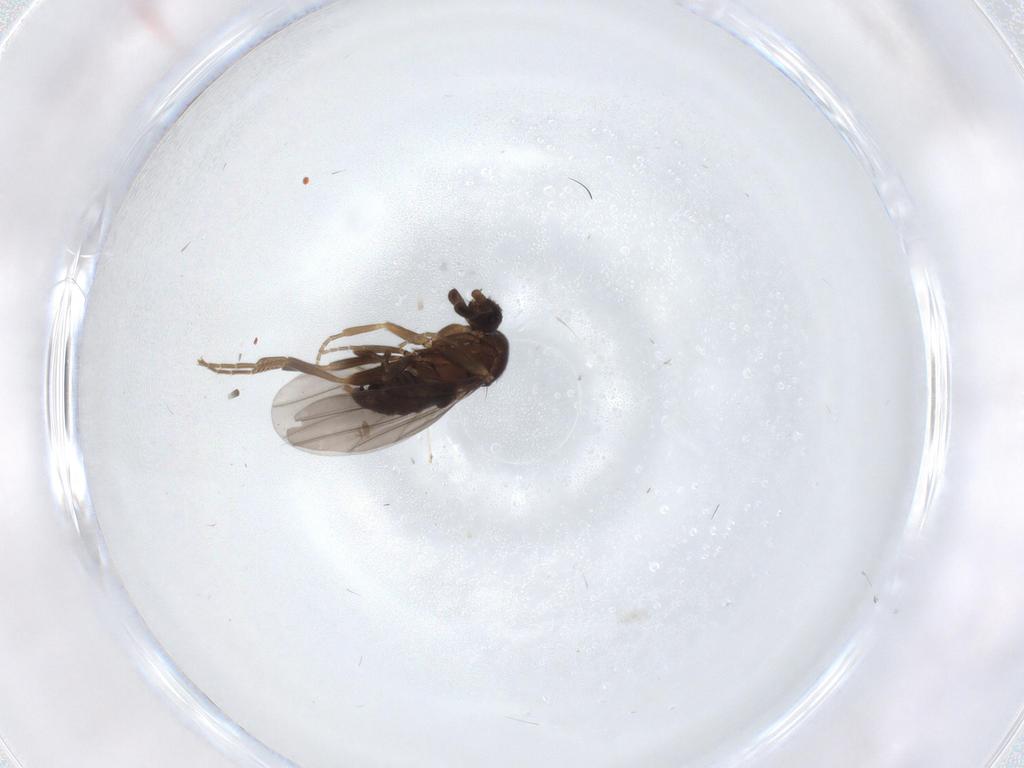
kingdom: Animalia
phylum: Arthropoda
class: Insecta
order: Diptera
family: Phoridae
